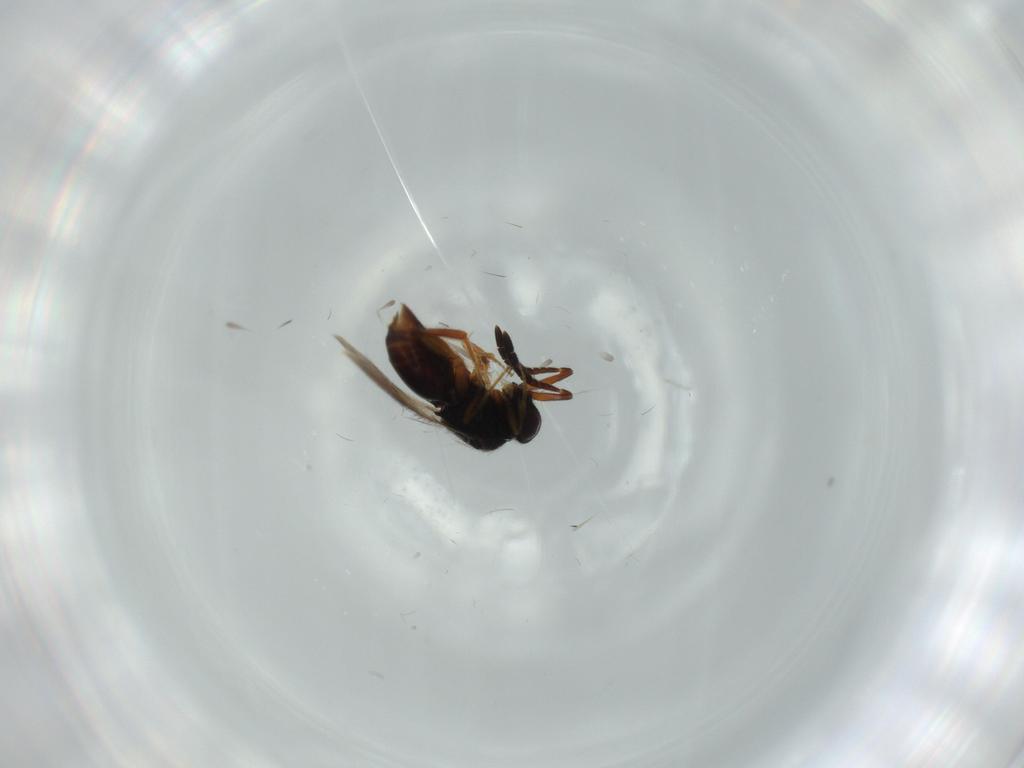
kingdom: Animalia
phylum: Arthropoda
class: Insecta
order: Hymenoptera
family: Ceraphronidae
